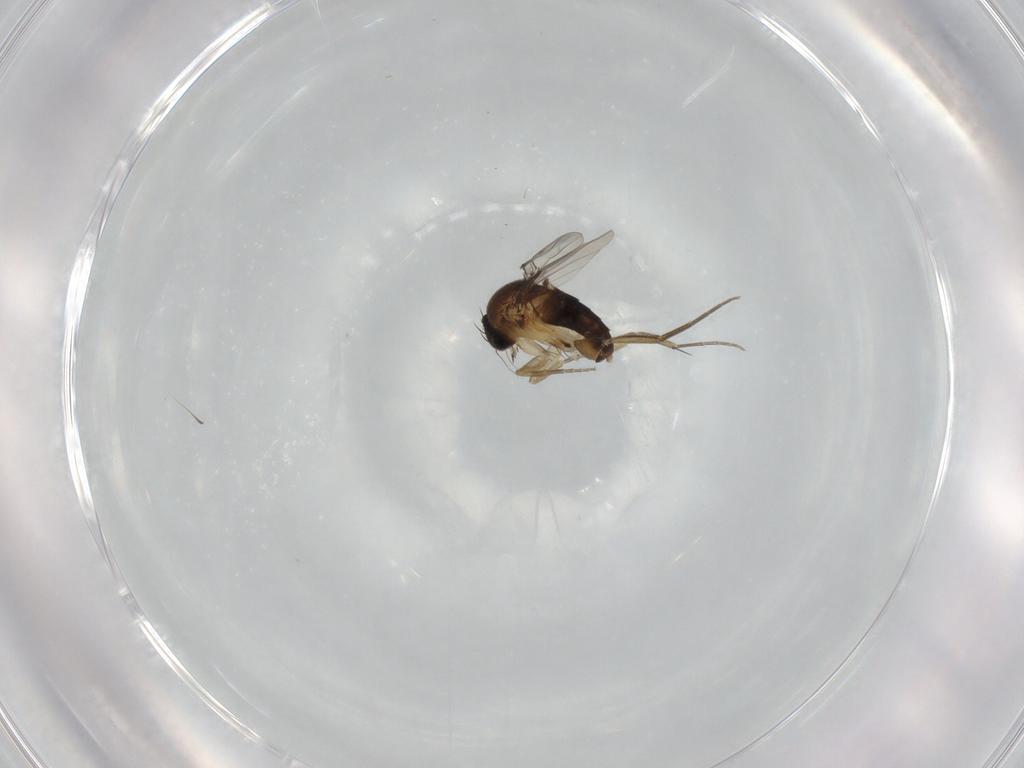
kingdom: Animalia
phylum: Arthropoda
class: Insecta
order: Diptera
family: Phoridae
